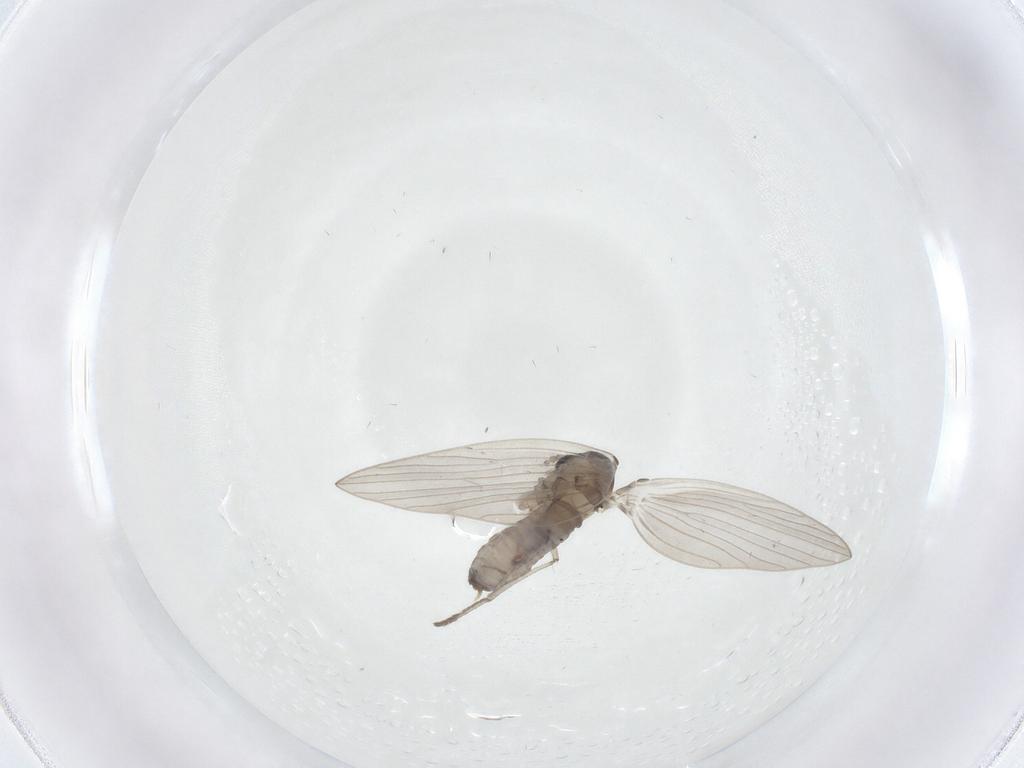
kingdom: Animalia
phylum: Arthropoda
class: Insecta
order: Diptera
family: Psychodidae
